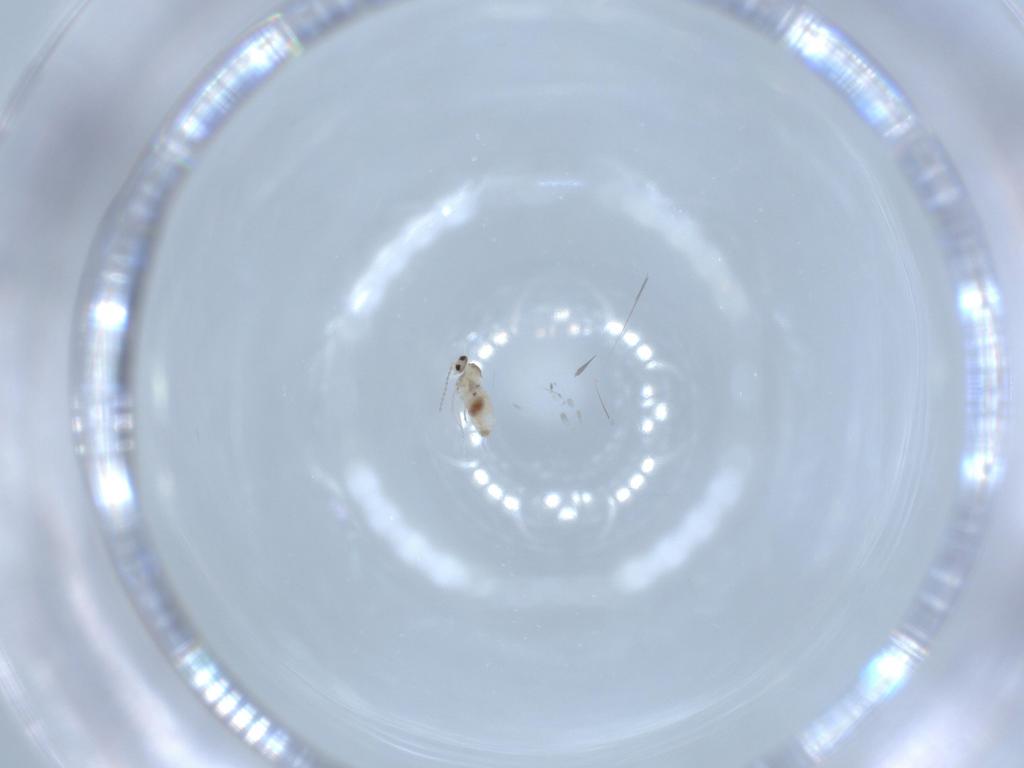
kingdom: Animalia
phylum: Arthropoda
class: Insecta
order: Diptera
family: Cecidomyiidae
